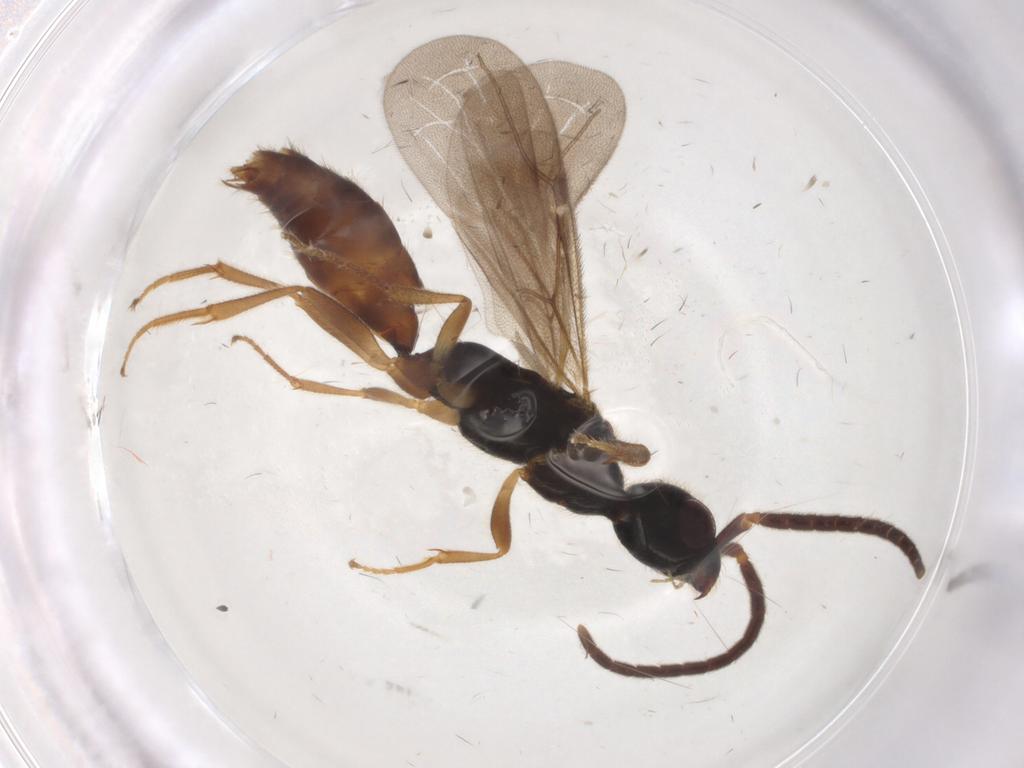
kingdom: Animalia
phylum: Arthropoda
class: Insecta
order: Hymenoptera
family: Bethylidae
